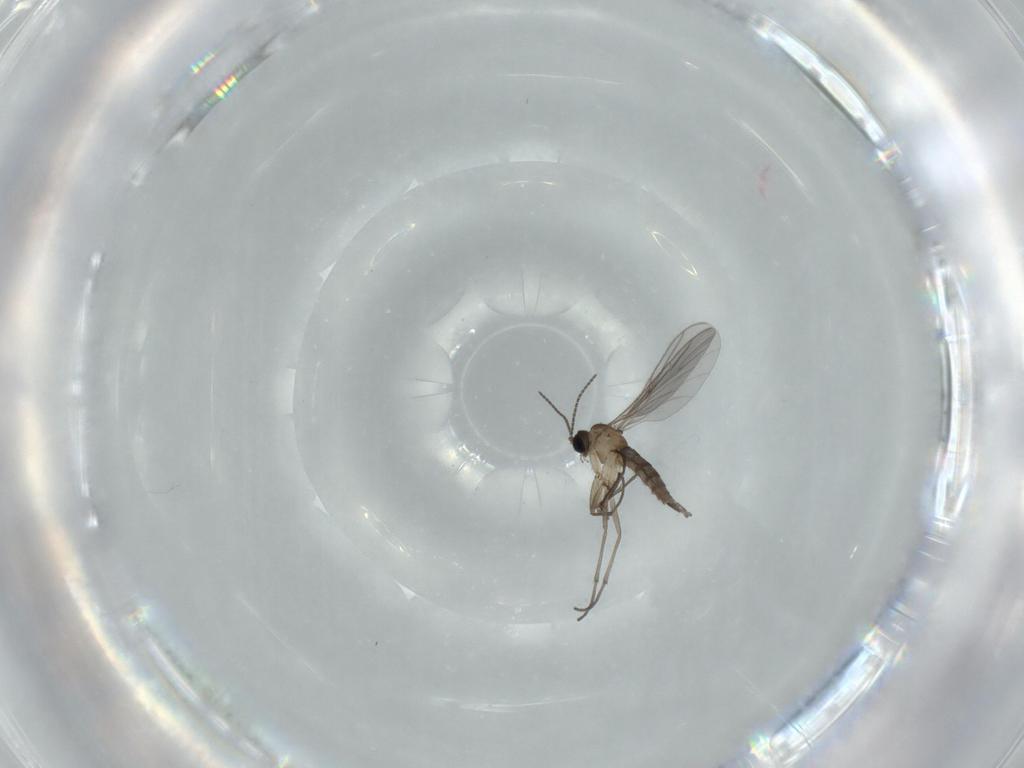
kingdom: Animalia
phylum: Arthropoda
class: Insecta
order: Diptera
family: Sciaridae
